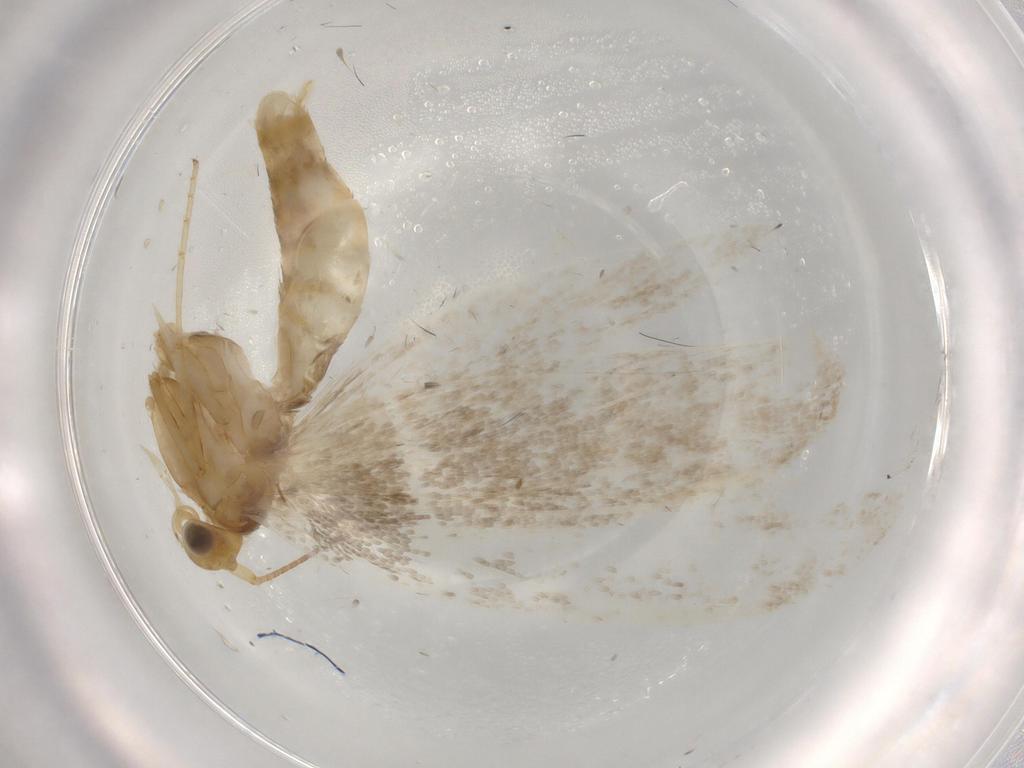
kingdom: Animalia
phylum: Arthropoda
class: Insecta
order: Lepidoptera
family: Argyresthiidae
